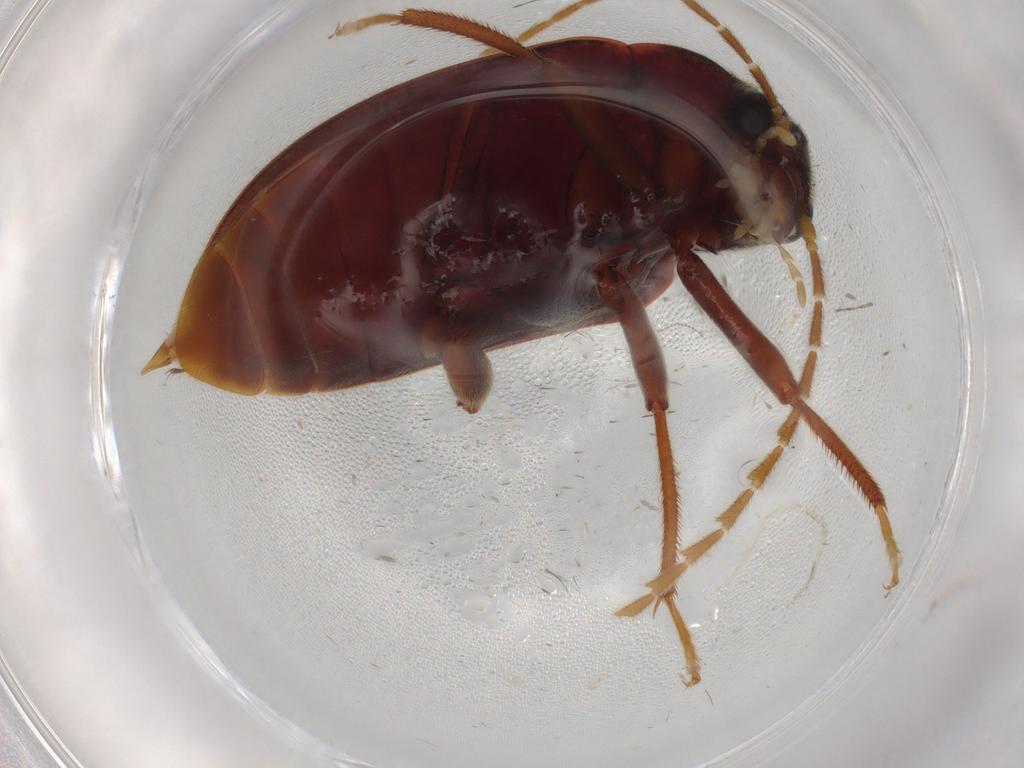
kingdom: Animalia
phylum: Arthropoda
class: Insecta
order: Coleoptera
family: Ptilodactylidae
